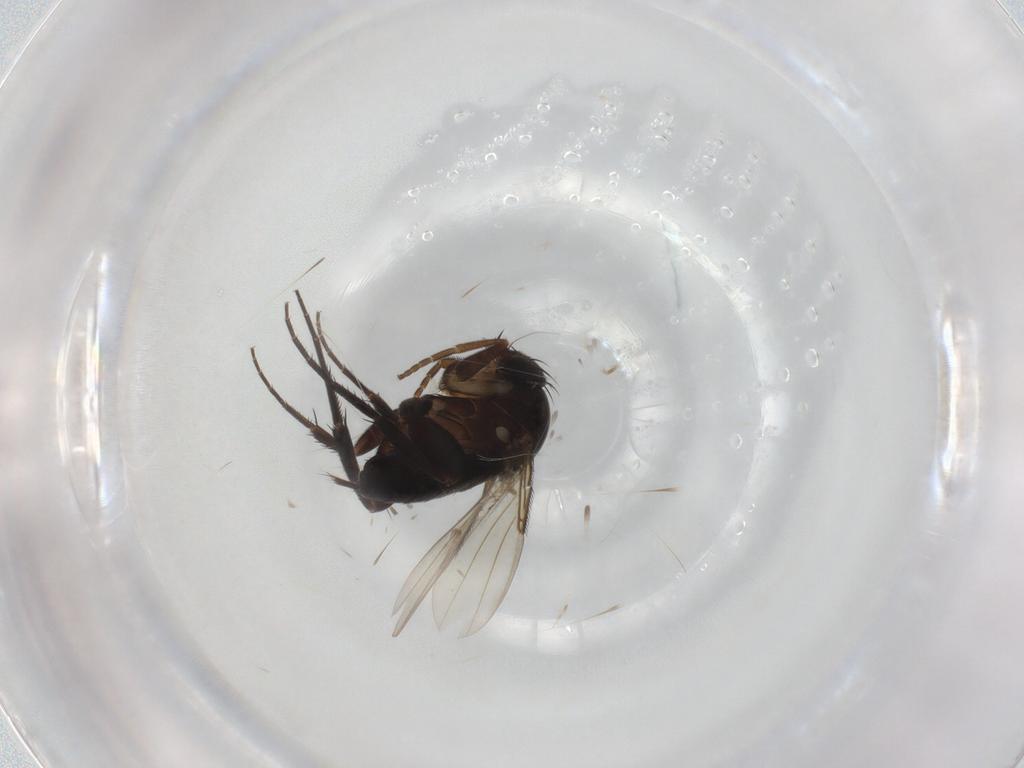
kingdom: Animalia
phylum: Arthropoda
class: Insecta
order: Diptera
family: Phoridae
